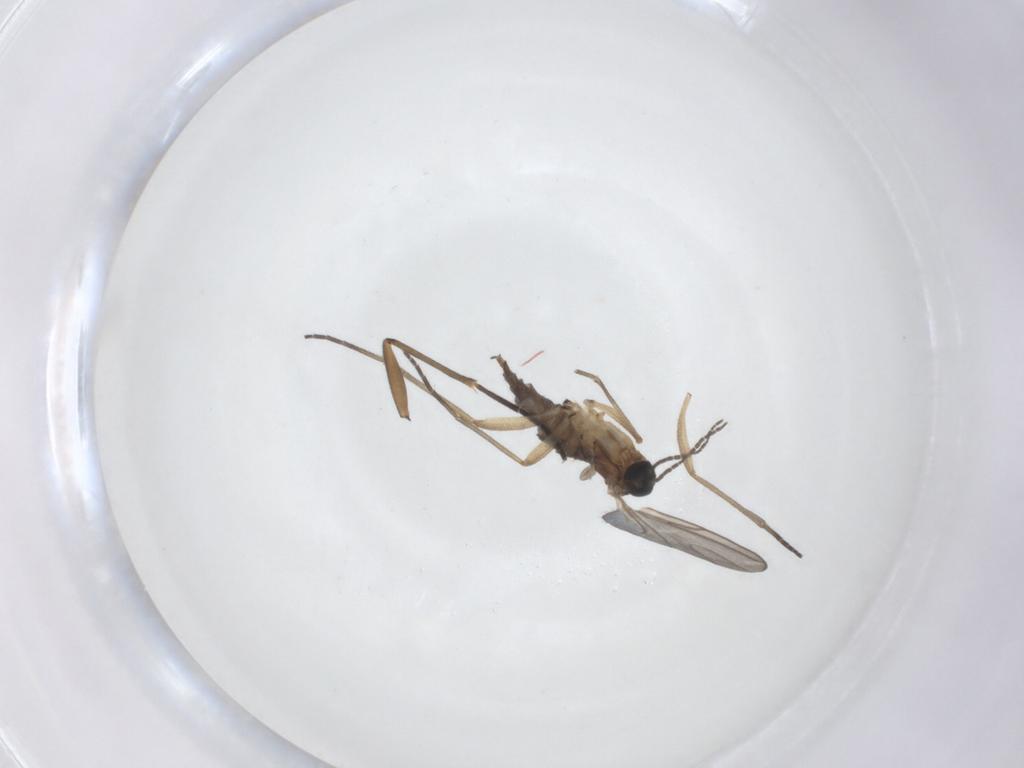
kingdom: Animalia
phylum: Arthropoda
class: Insecta
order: Diptera
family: Sciaridae
